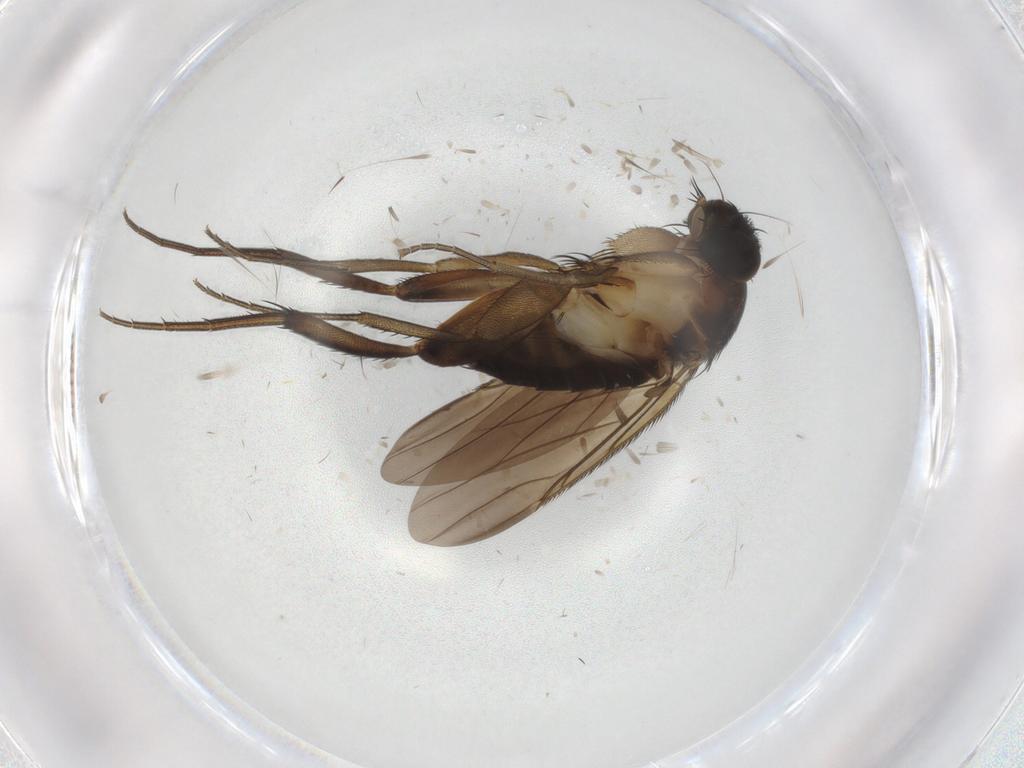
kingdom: Animalia
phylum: Arthropoda
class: Insecta
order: Diptera
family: Phoridae
